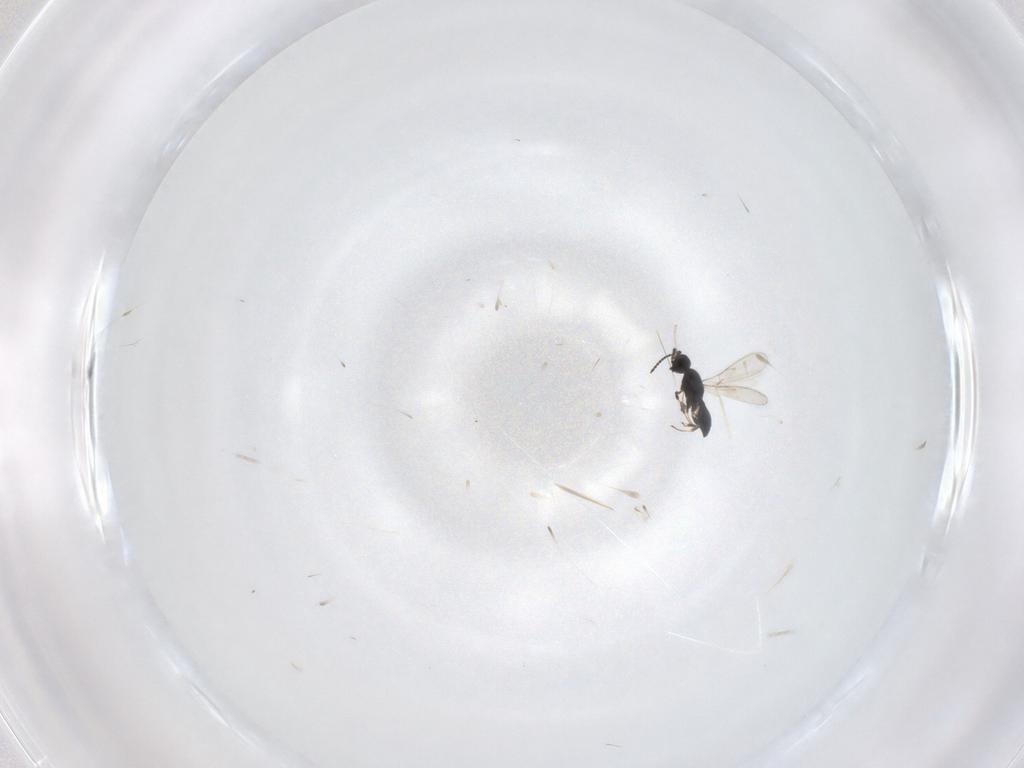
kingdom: Animalia
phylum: Arthropoda
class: Insecta
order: Hymenoptera
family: Scelionidae
